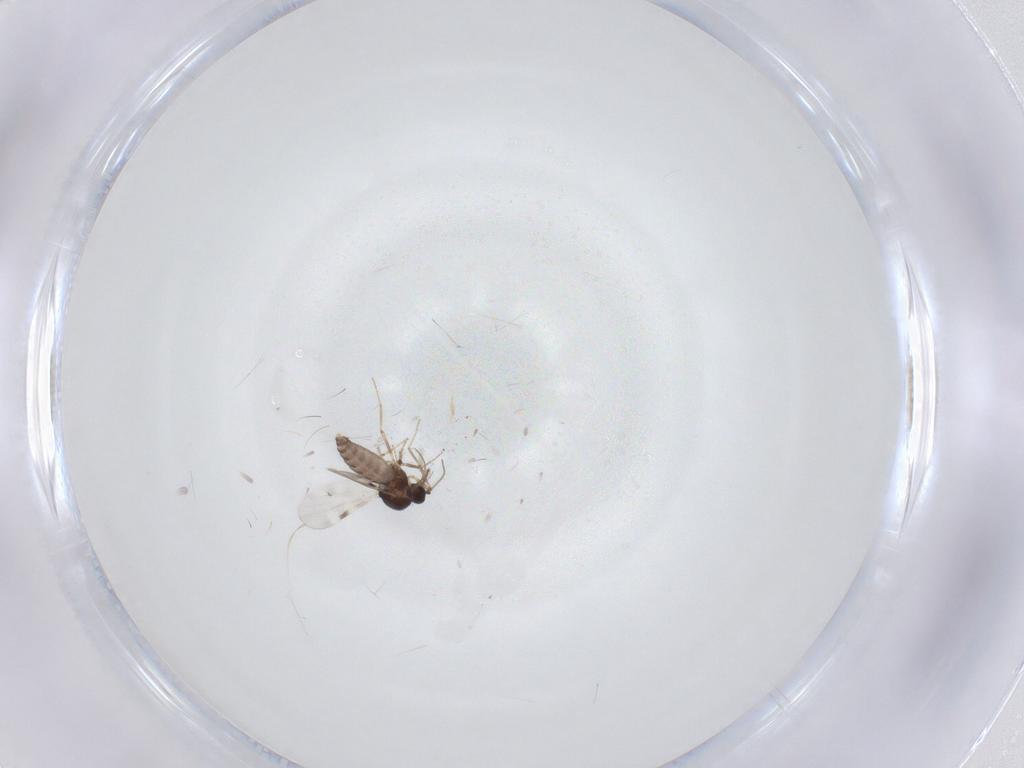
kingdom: Animalia
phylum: Arthropoda
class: Insecta
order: Diptera
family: Limoniidae
